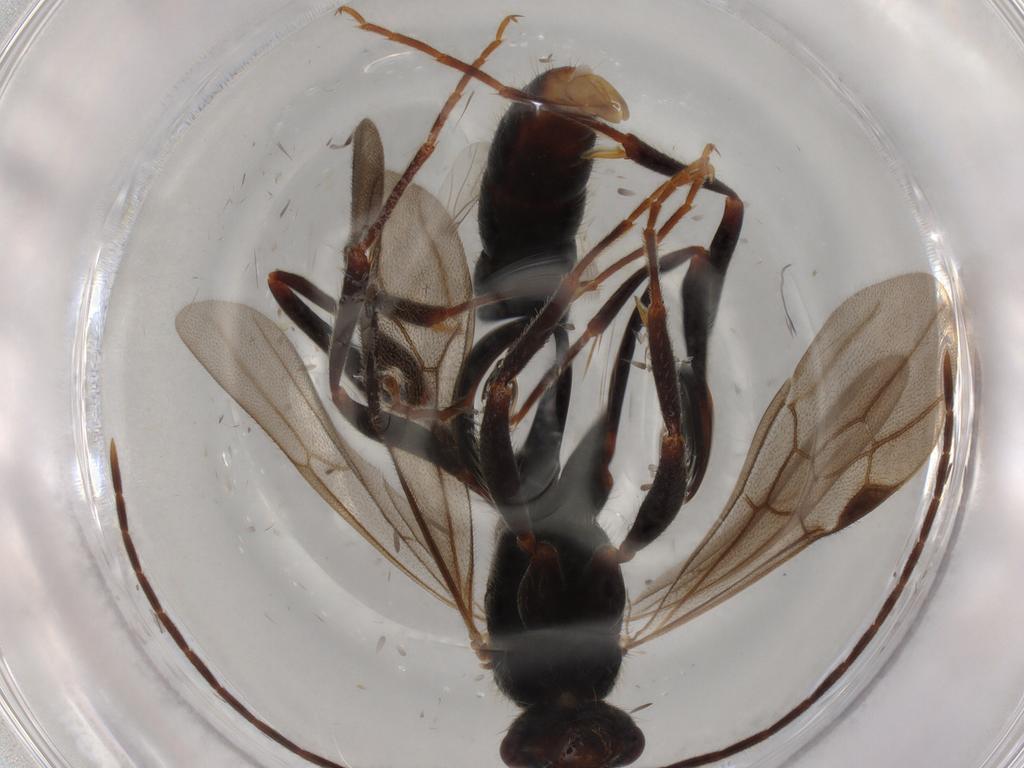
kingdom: Animalia
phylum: Arthropoda
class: Insecta
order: Hymenoptera
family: Formicidae
